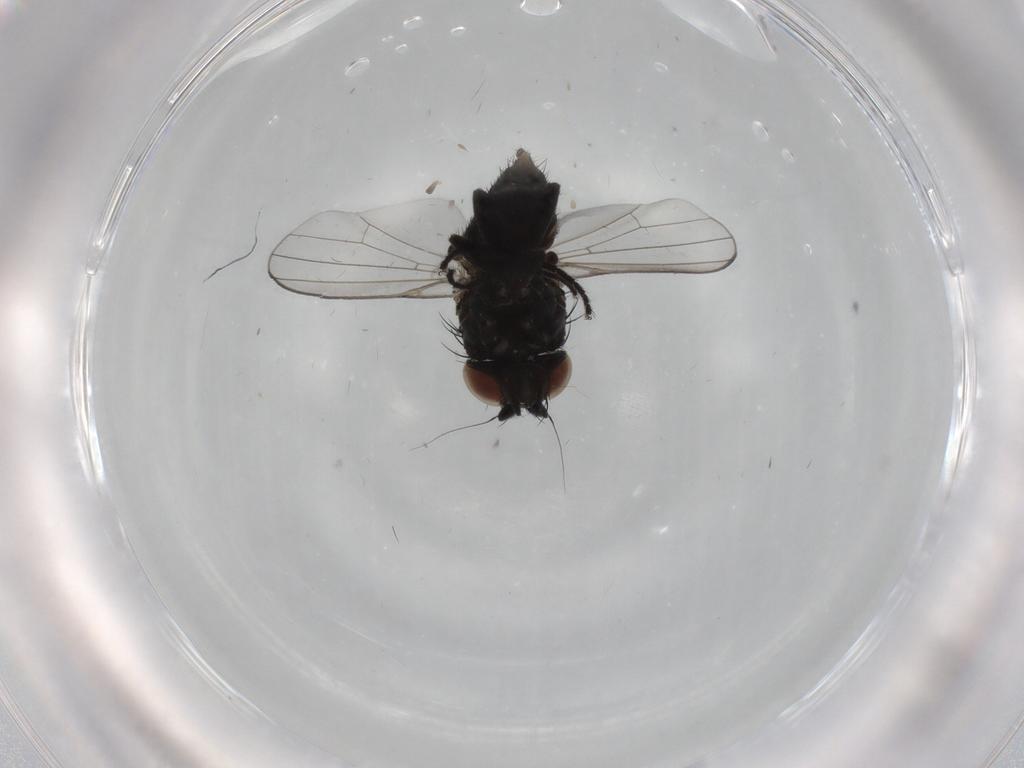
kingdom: Animalia
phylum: Arthropoda
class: Insecta
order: Diptera
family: Milichiidae
